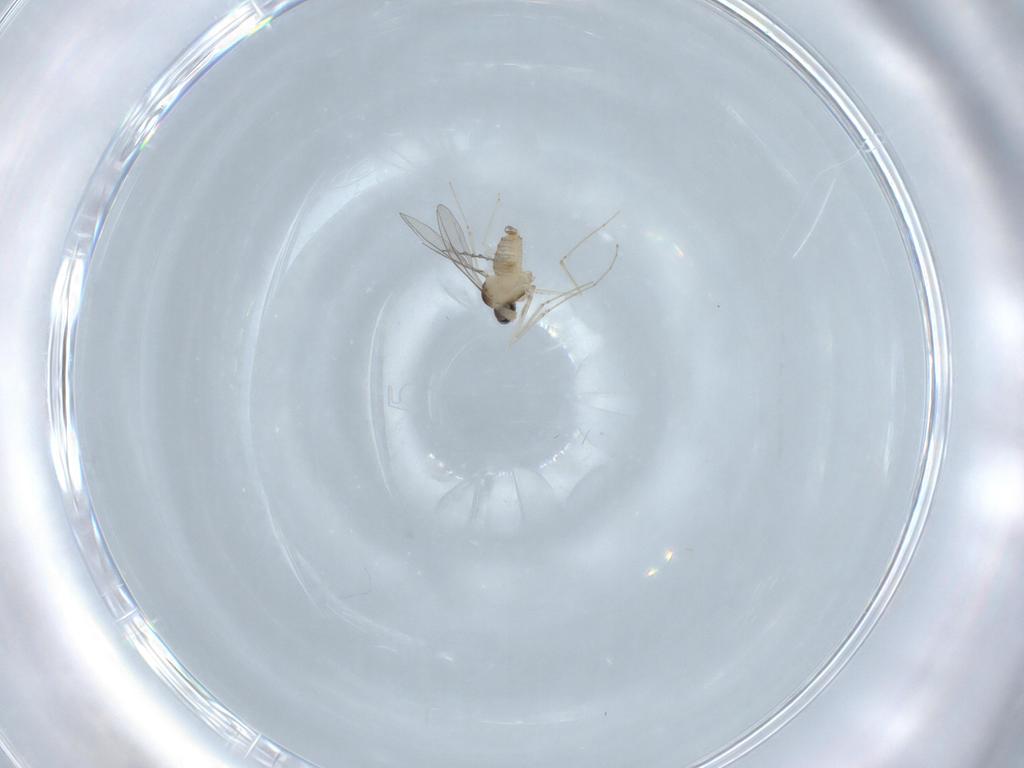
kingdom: Animalia
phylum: Arthropoda
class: Insecta
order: Diptera
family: Cecidomyiidae
